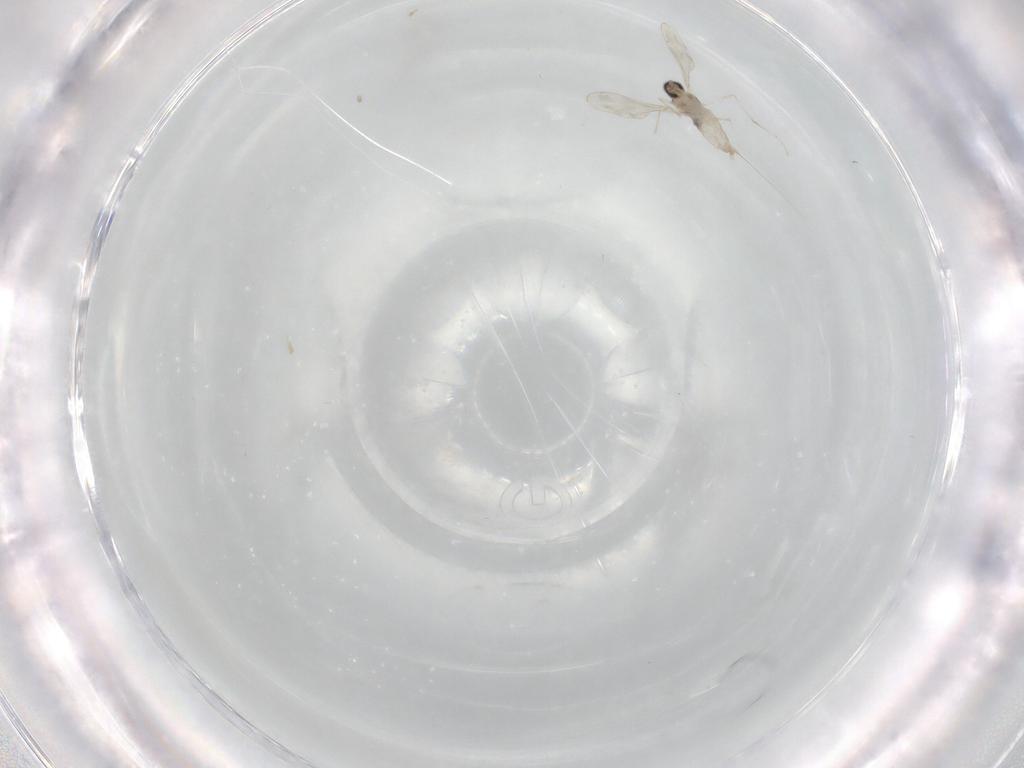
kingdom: Animalia
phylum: Arthropoda
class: Insecta
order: Diptera
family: Cecidomyiidae
